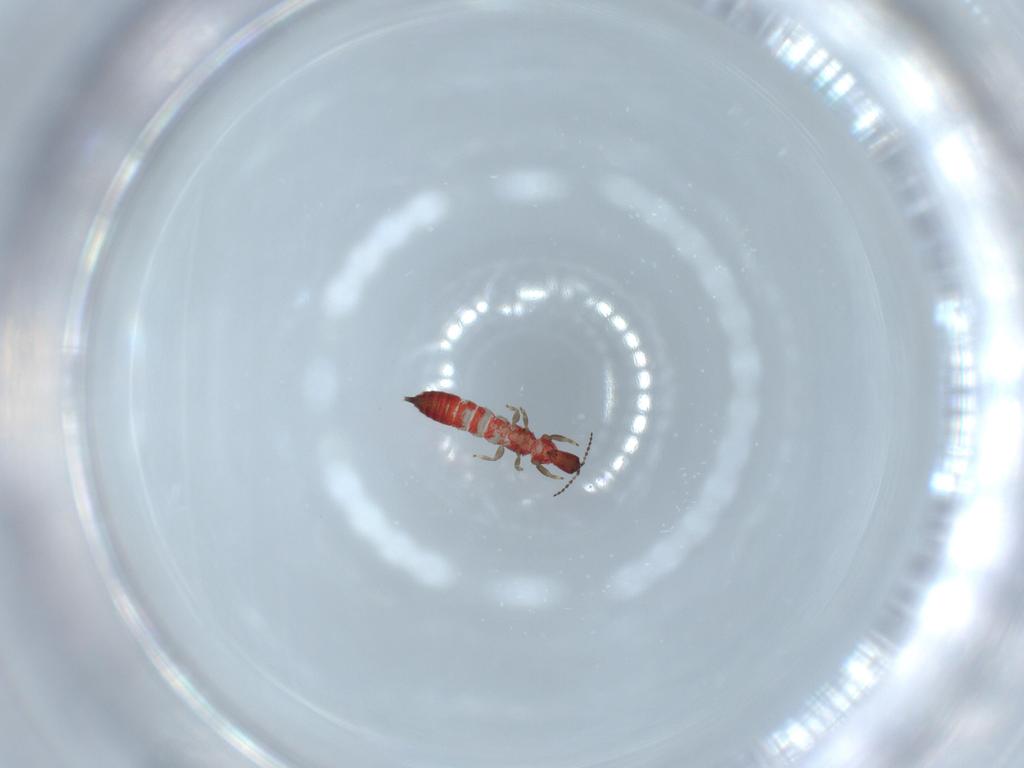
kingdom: Animalia
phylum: Arthropoda
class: Insecta
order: Thysanoptera
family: Phlaeothripidae
